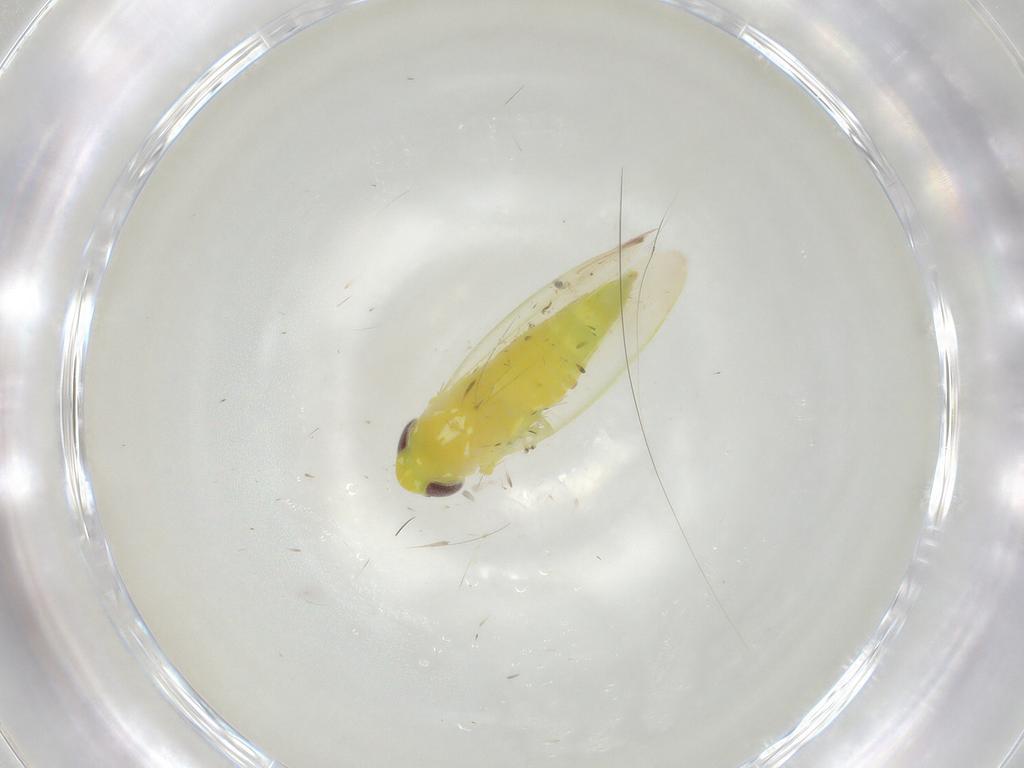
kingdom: Animalia
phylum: Arthropoda
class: Insecta
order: Hemiptera
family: Cicadellidae
